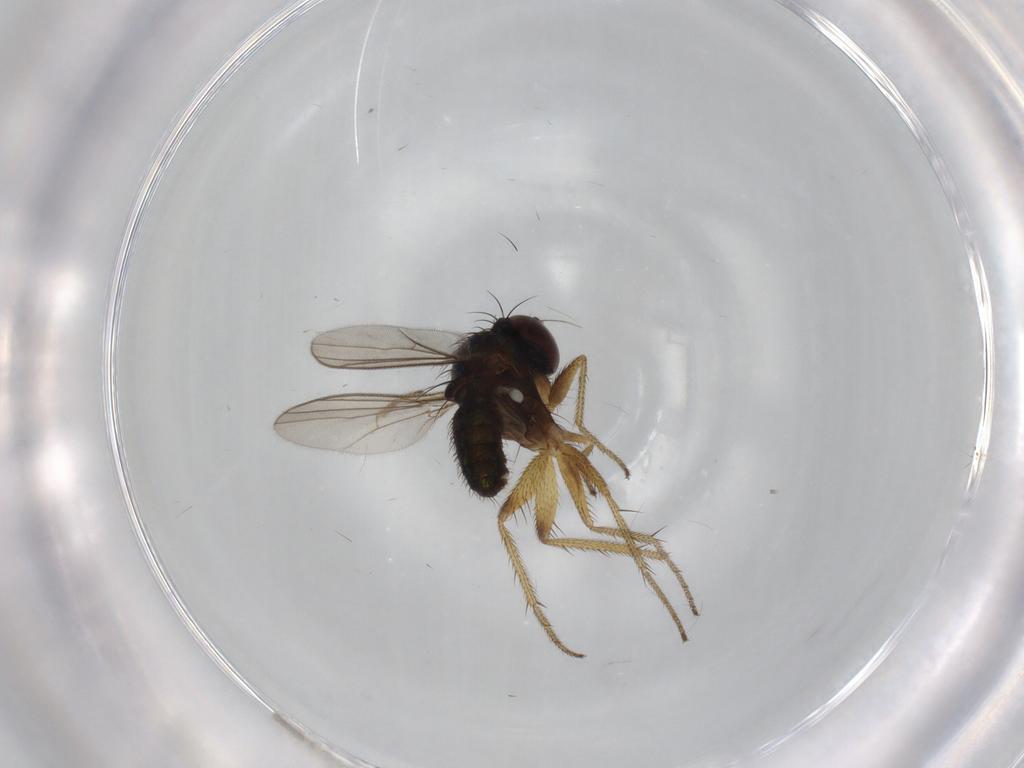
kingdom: Animalia
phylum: Arthropoda
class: Insecta
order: Diptera
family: Dolichopodidae
